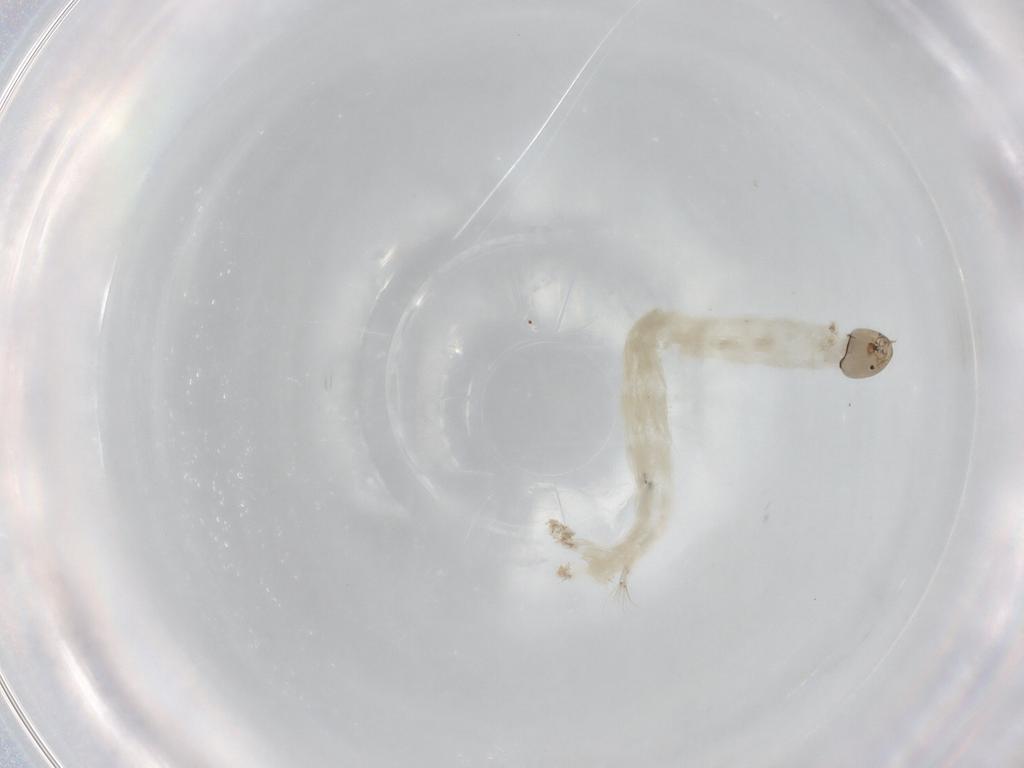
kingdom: Animalia
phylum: Arthropoda
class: Insecta
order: Diptera
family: Chironomidae
